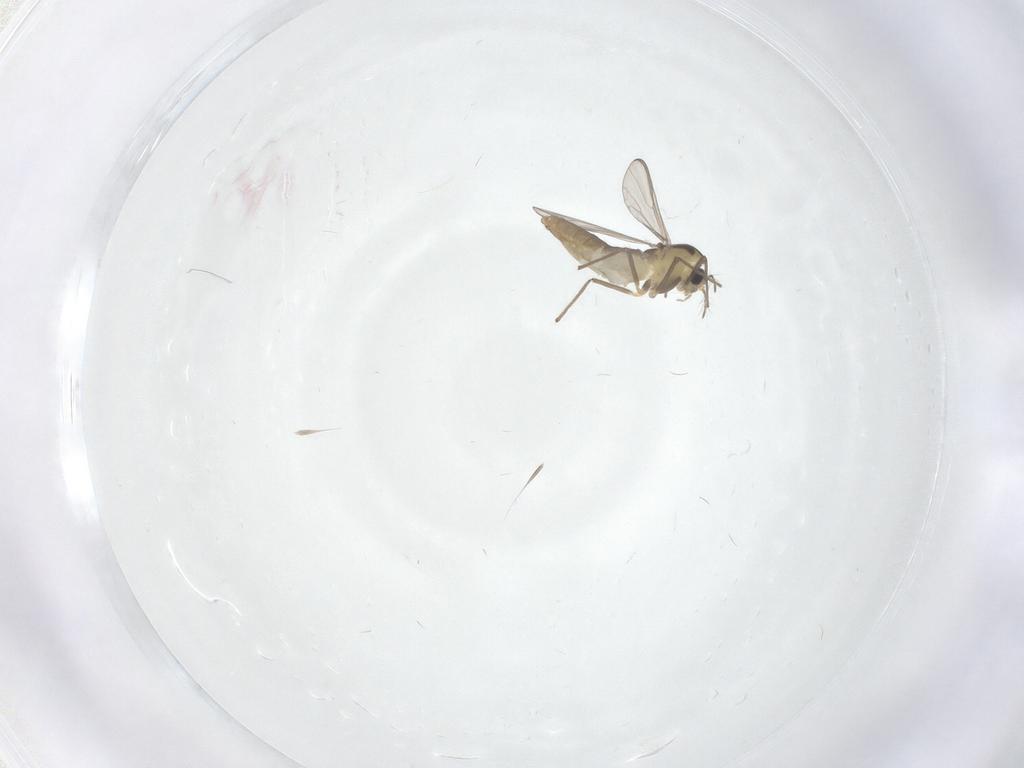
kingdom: Animalia
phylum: Arthropoda
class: Insecta
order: Diptera
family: Chironomidae
